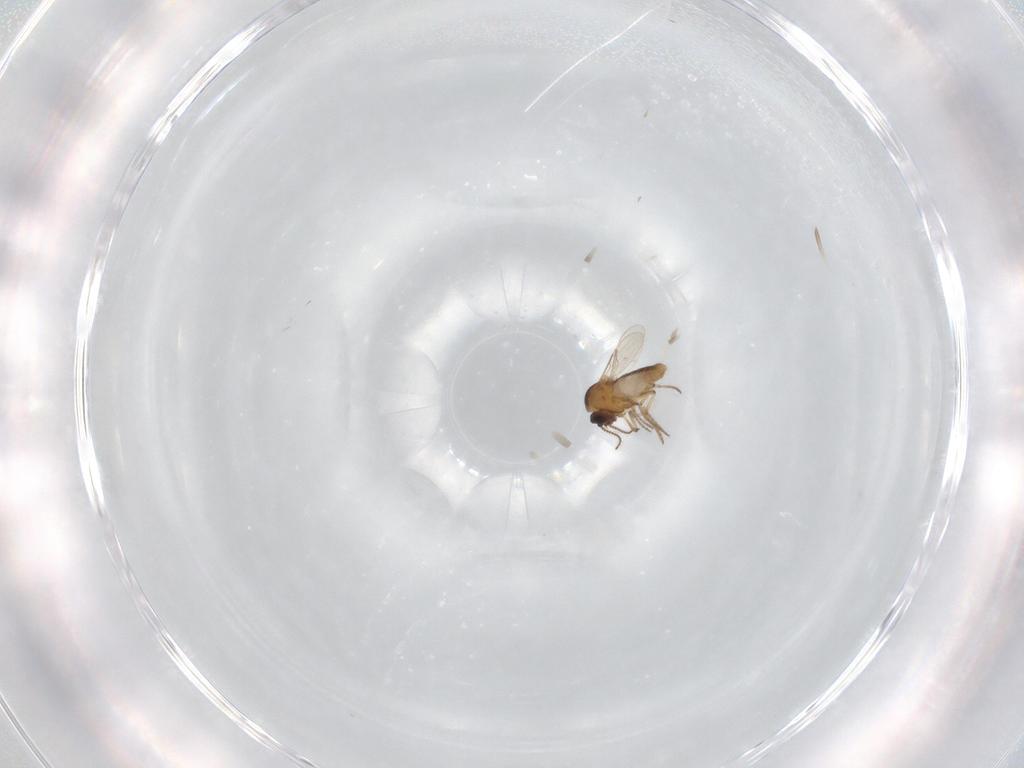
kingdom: Animalia
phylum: Arthropoda
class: Insecta
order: Diptera
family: Ceratopogonidae
